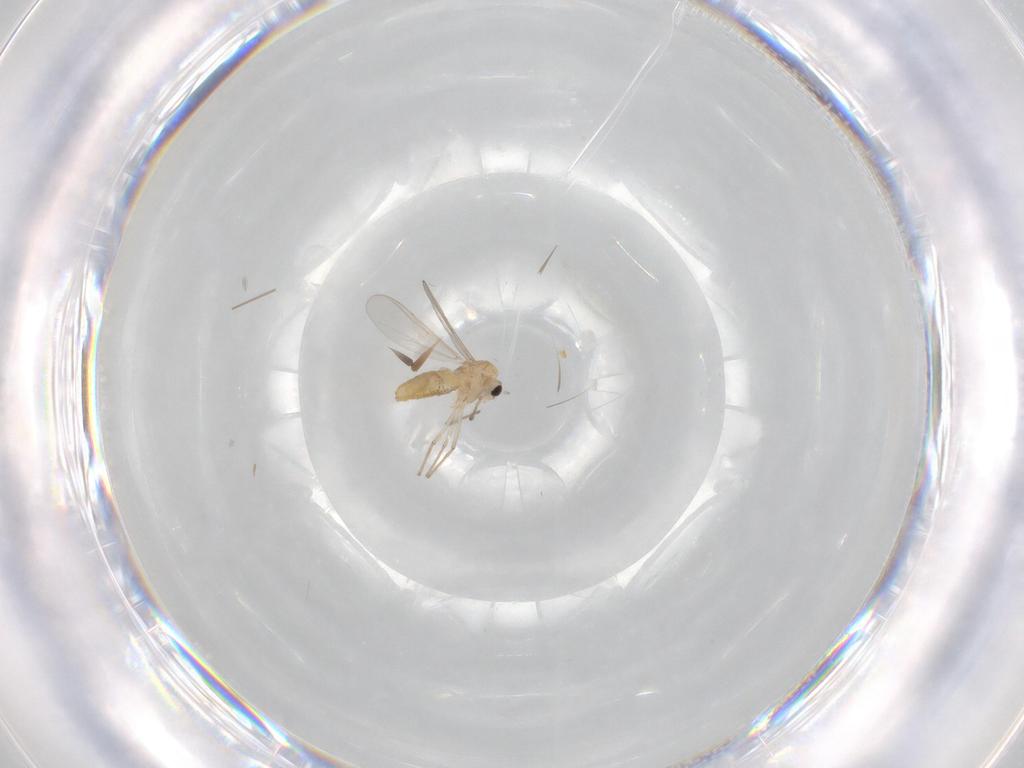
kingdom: Animalia
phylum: Arthropoda
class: Insecta
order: Diptera
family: Chironomidae
